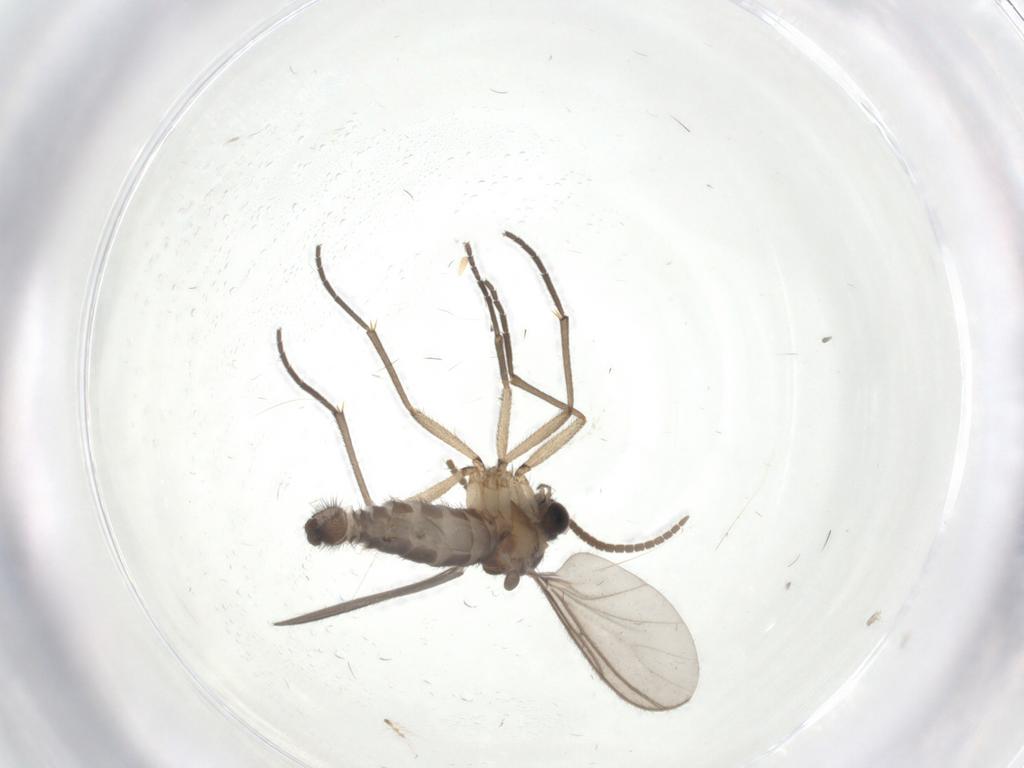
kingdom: Animalia
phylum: Arthropoda
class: Insecta
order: Diptera
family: Chironomidae
